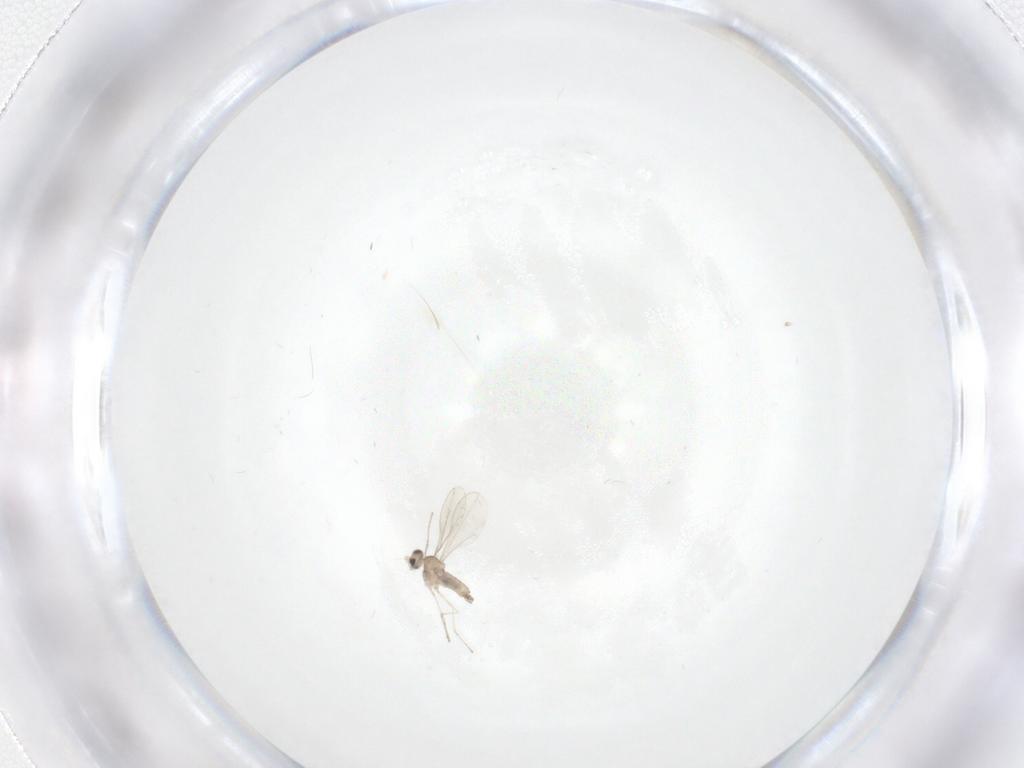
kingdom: Animalia
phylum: Arthropoda
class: Insecta
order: Diptera
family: Cecidomyiidae
